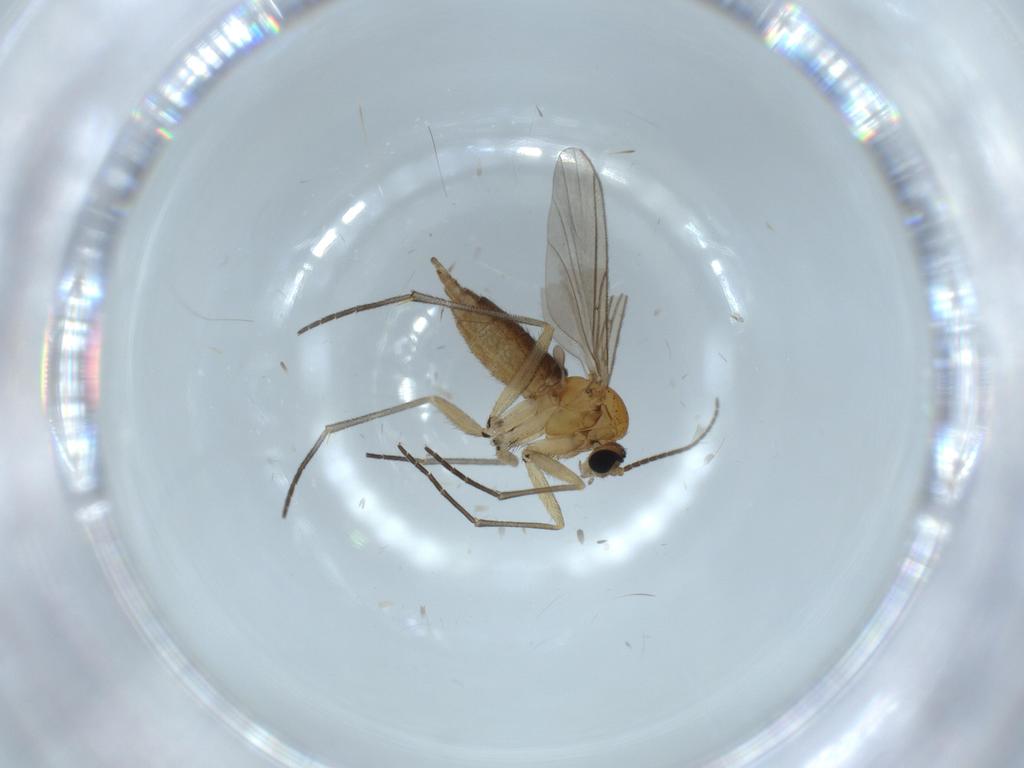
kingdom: Animalia
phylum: Arthropoda
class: Insecta
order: Diptera
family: Sciaridae
